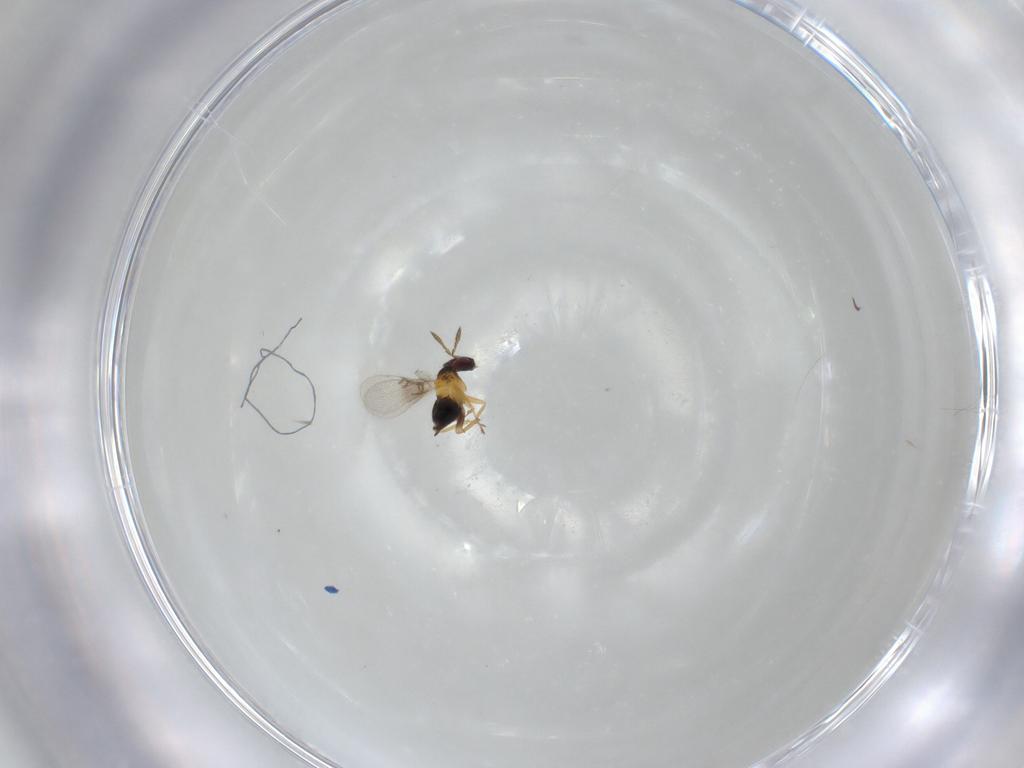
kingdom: Animalia
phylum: Arthropoda
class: Insecta
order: Hymenoptera
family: Trichogrammatidae
